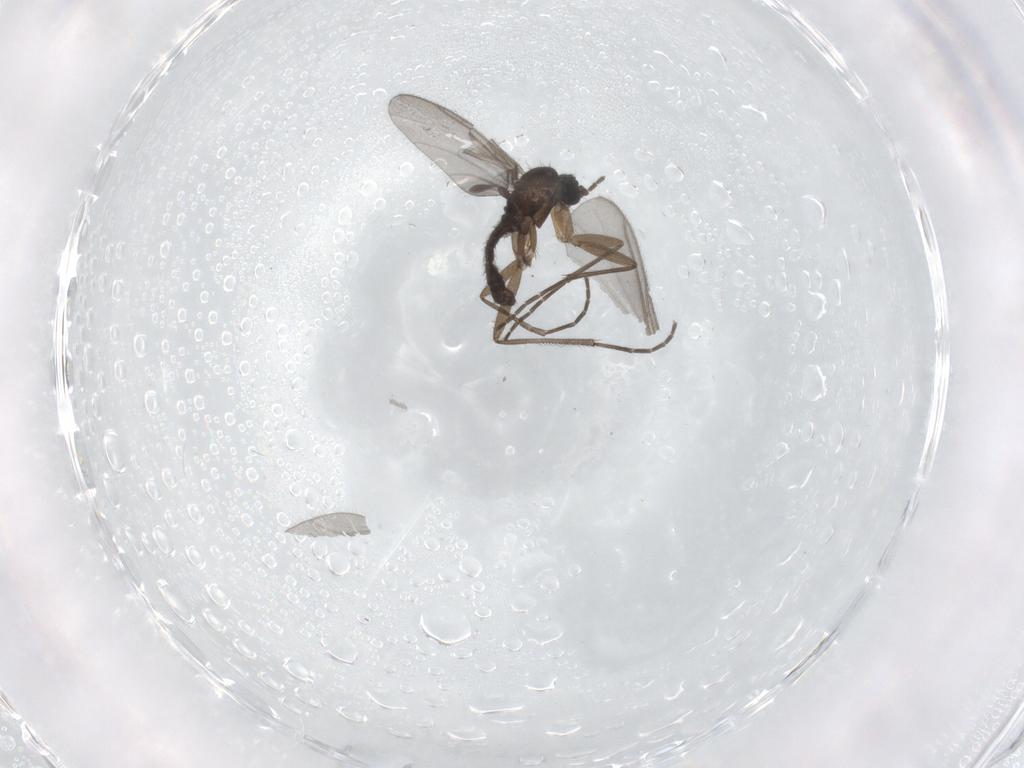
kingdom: Animalia
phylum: Arthropoda
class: Insecta
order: Diptera
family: Sciaridae
